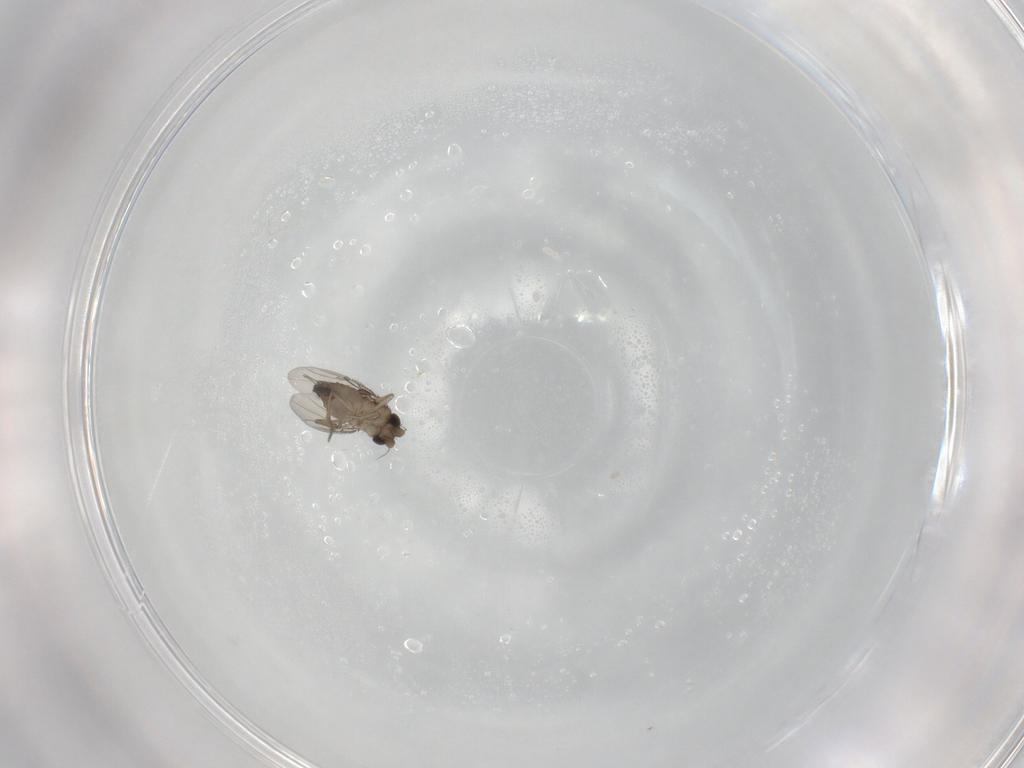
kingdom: Animalia
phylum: Arthropoda
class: Insecta
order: Diptera
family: Phoridae
